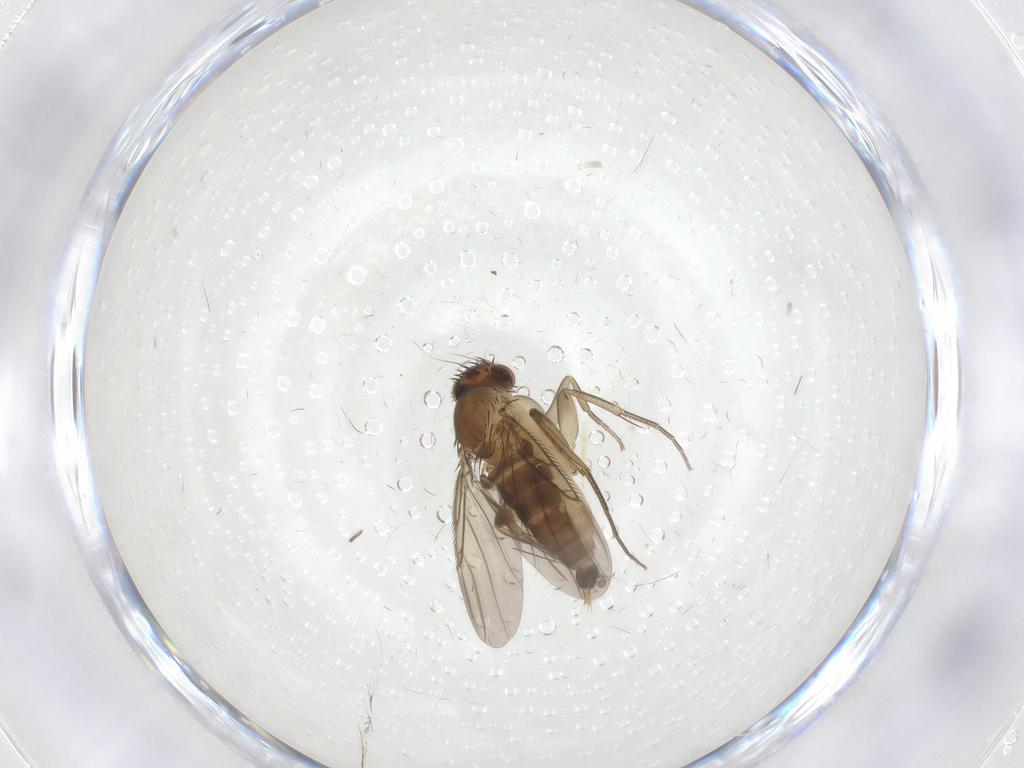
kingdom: Animalia
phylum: Arthropoda
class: Insecta
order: Diptera
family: Phoridae
